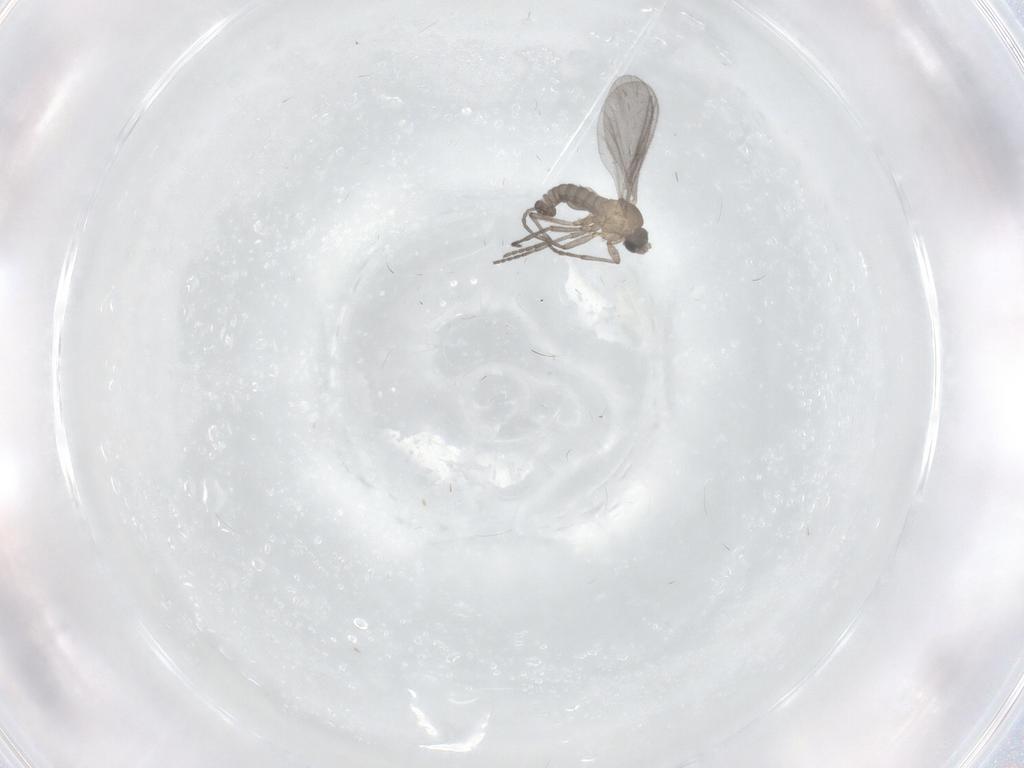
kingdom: Animalia
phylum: Arthropoda
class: Insecta
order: Diptera
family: Sciaridae
